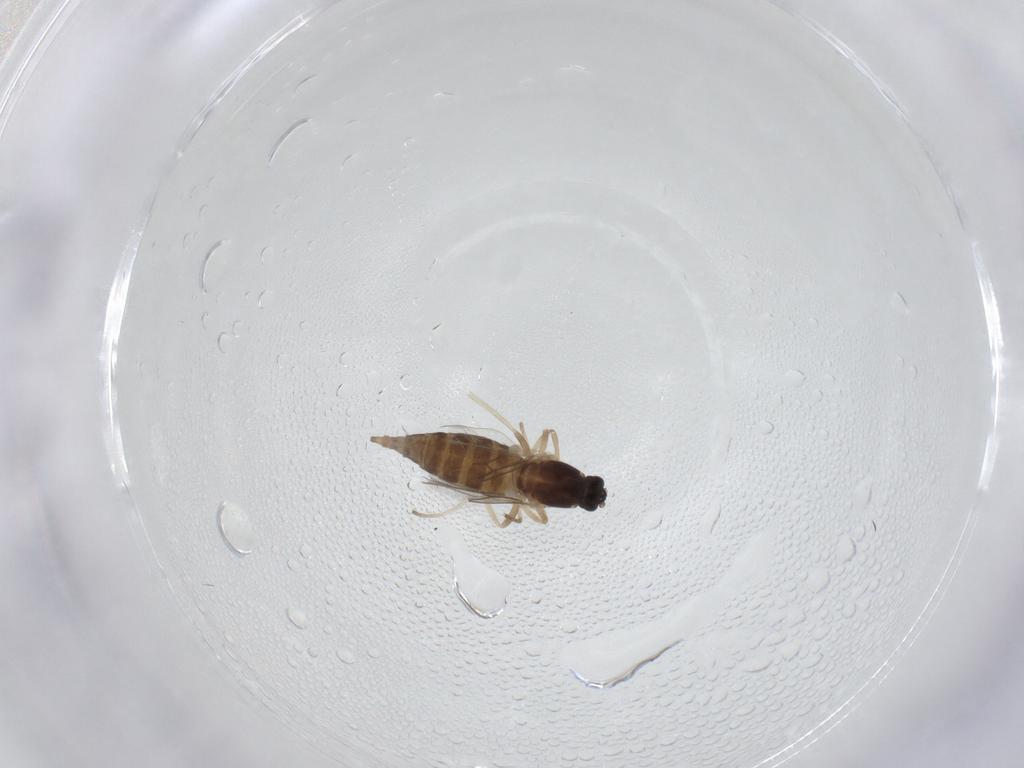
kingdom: Animalia
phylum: Arthropoda
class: Insecta
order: Diptera
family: Cecidomyiidae
